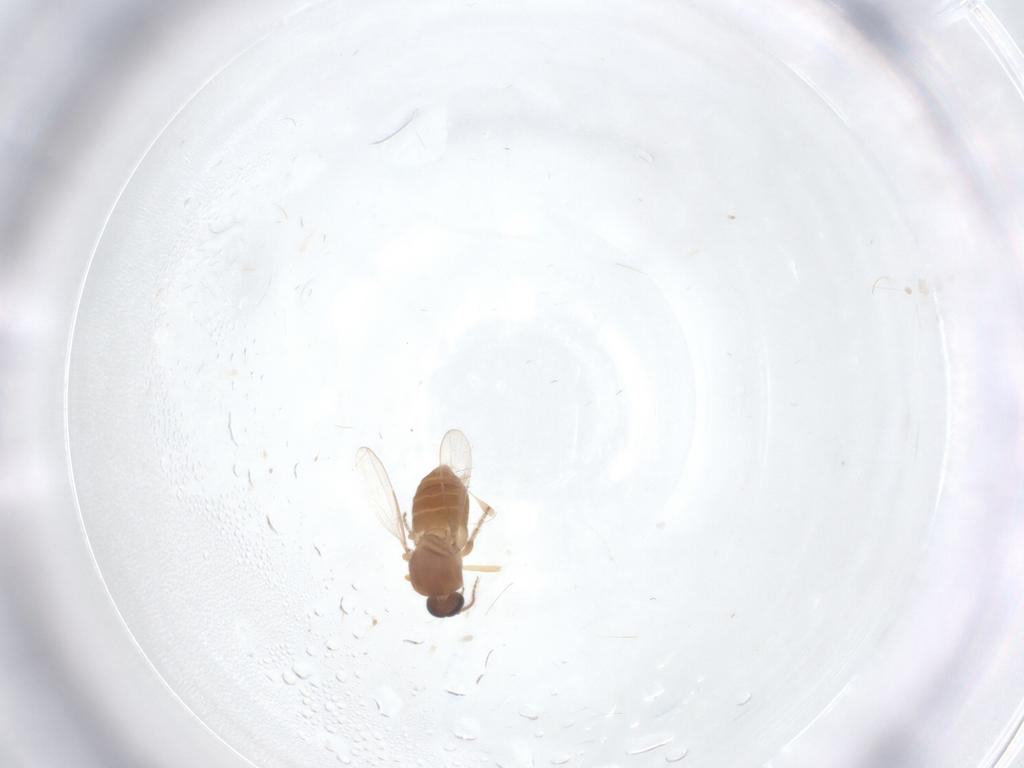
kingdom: Animalia
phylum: Arthropoda
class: Insecta
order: Diptera
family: Ceratopogonidae
